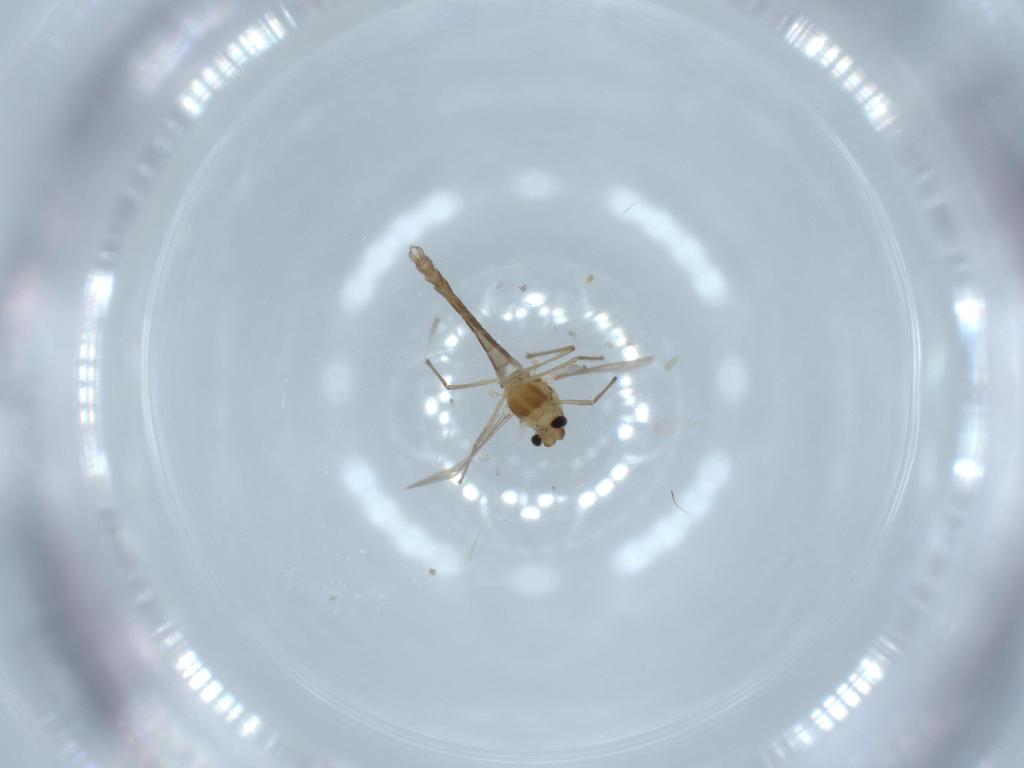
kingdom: Animalia
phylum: Arthropoda
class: Insecta
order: Diptera
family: Chironomidae
